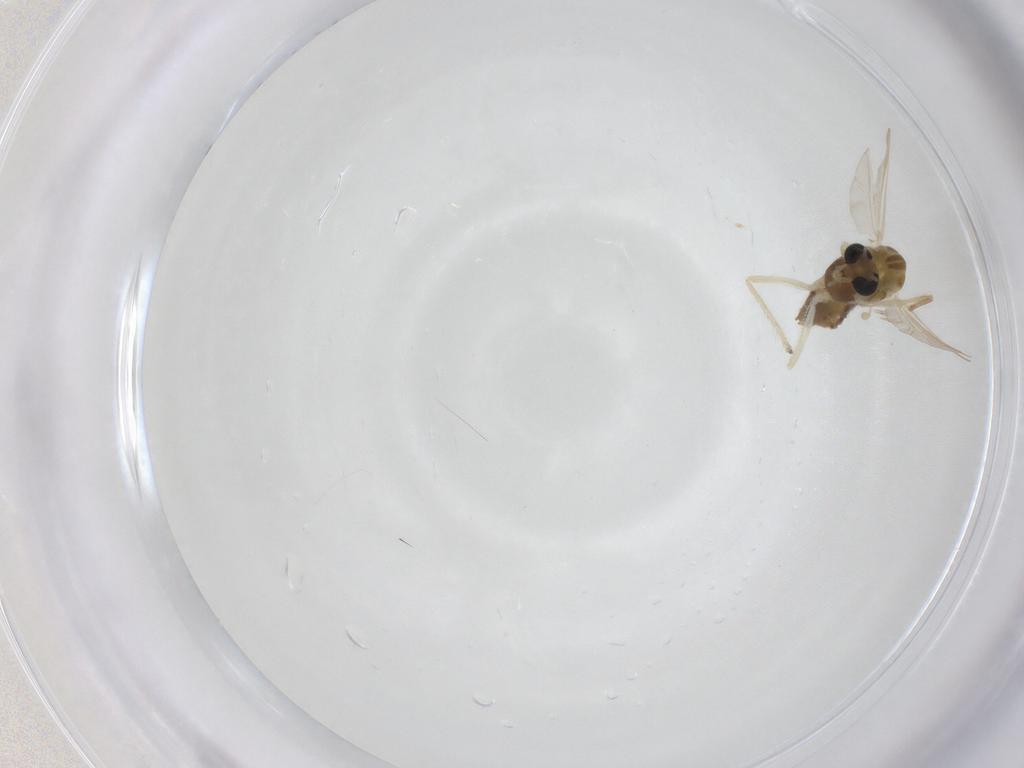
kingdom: Animalia
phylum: Arthropoda
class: Insecta
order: Diptera
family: Chironomidae
